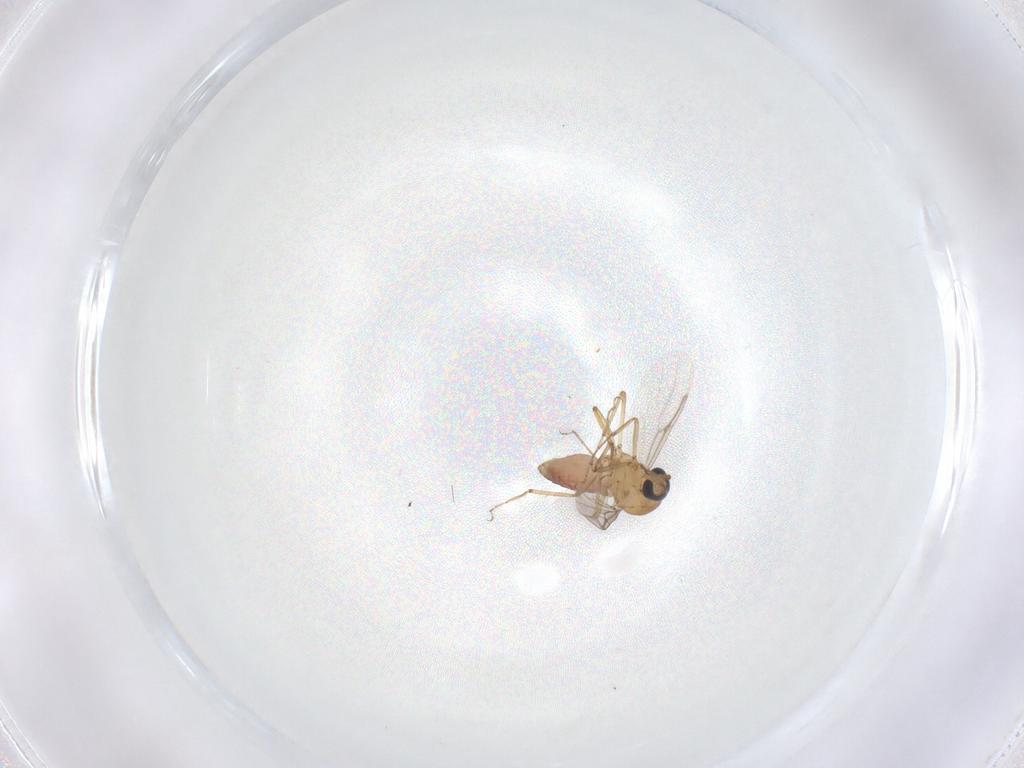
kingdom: Animalia
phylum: Arthropoda
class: Insecta
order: Diptera
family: Ceratopogonidae
